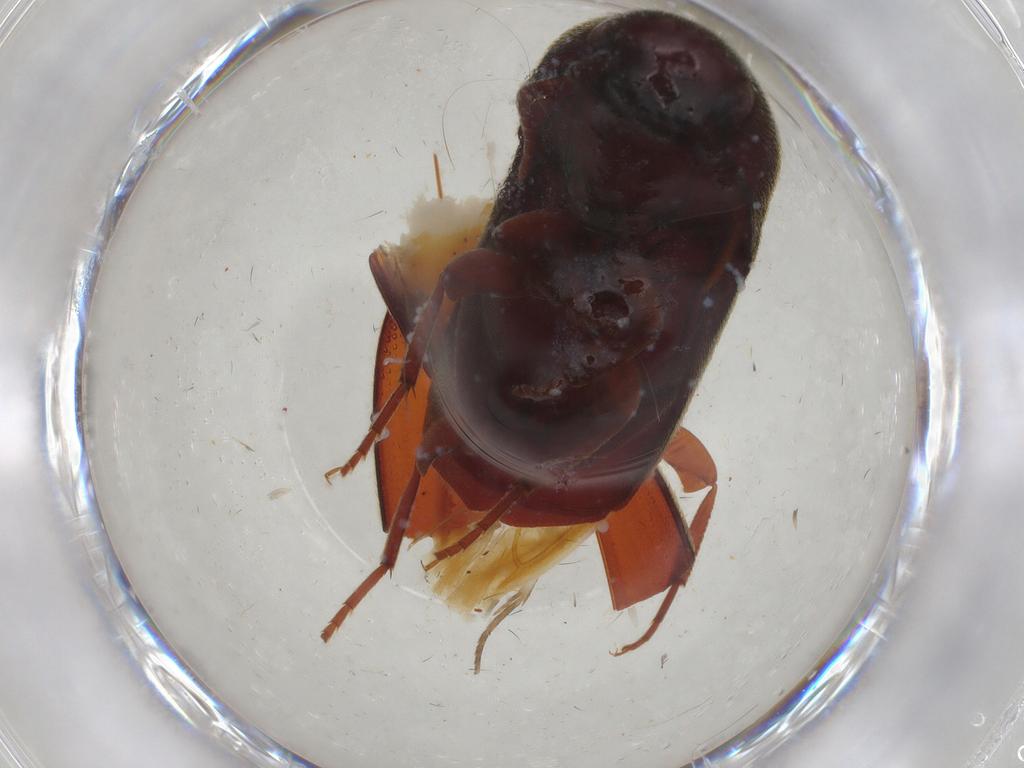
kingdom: Animalia
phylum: Arthropoda
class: Insecta
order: Coleoptera
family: Eucnemidae
